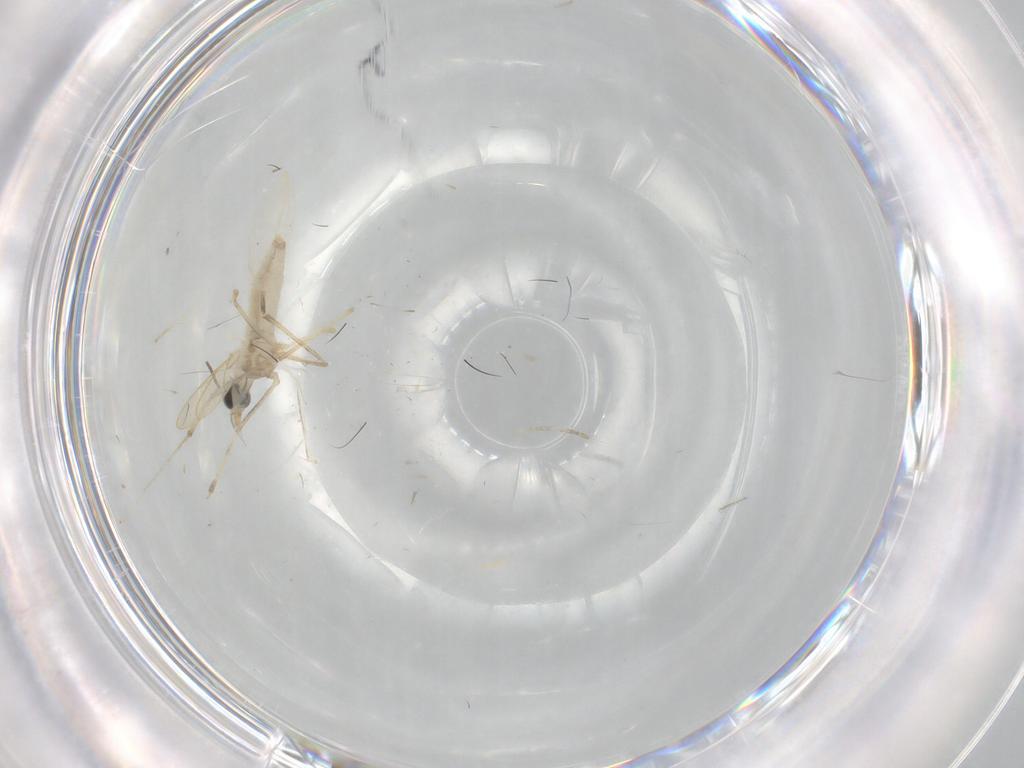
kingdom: Animalia
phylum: Arthropoda
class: Insecta
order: Diptera
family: Cecidomyiidae
